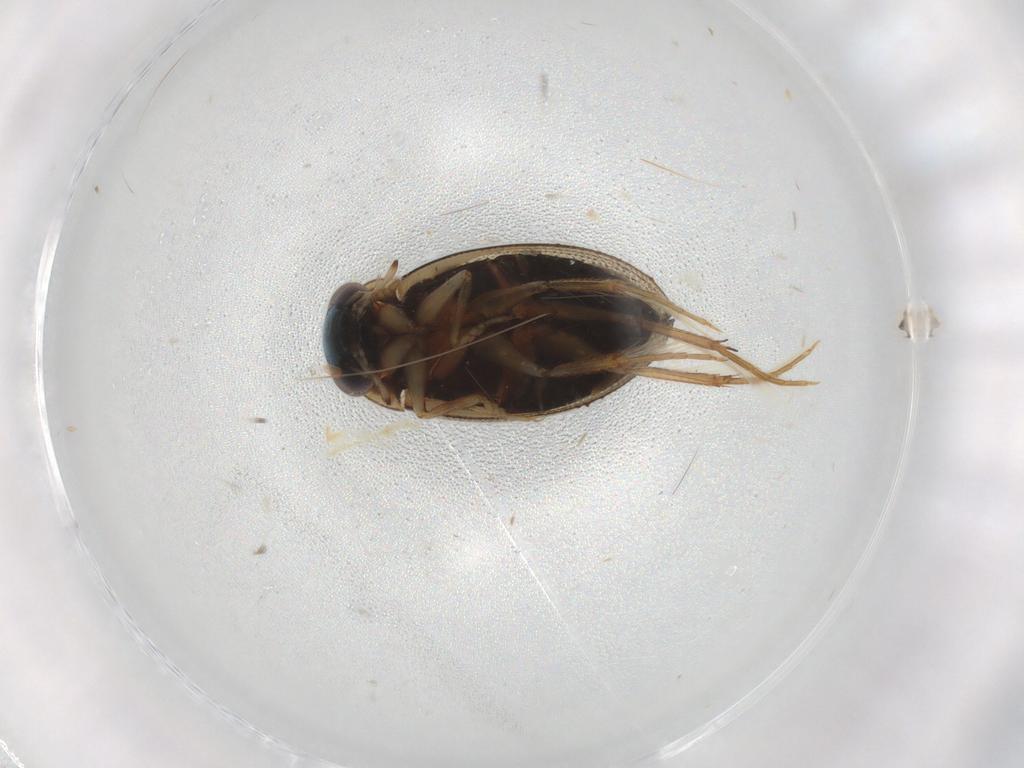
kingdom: Animalia
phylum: Arthropoda
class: Insecta
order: Coleoptera
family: Hydrophilidae
